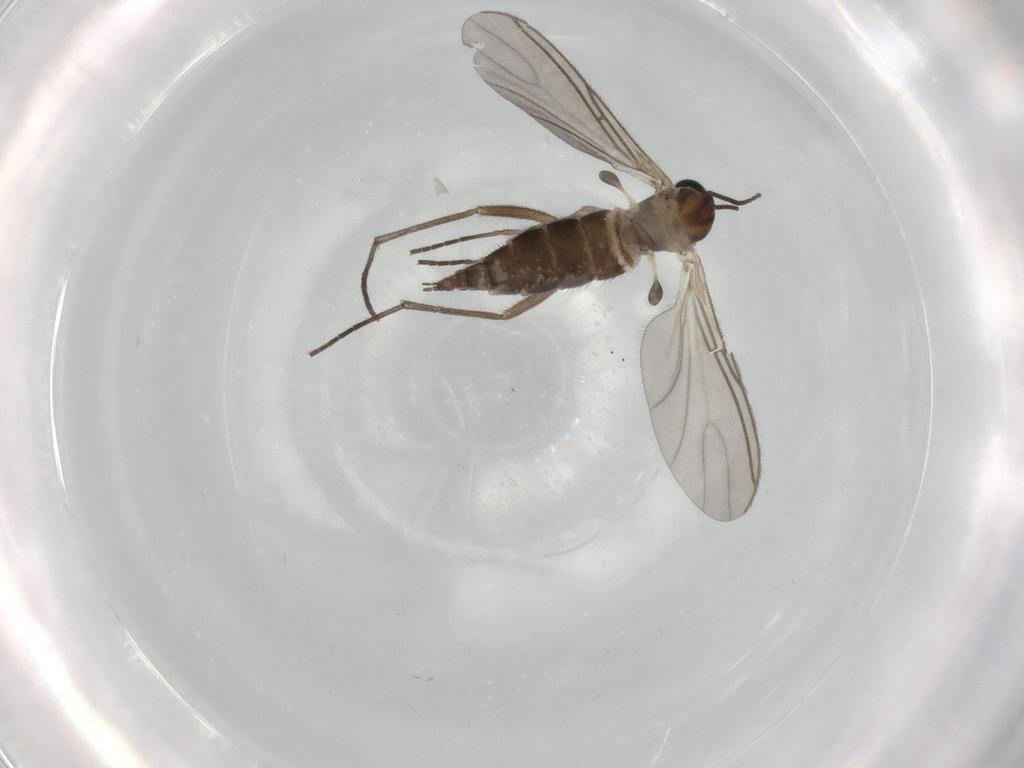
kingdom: Animalia
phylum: Arthropoda
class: Insecta
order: Diptera
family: Sciaridae
